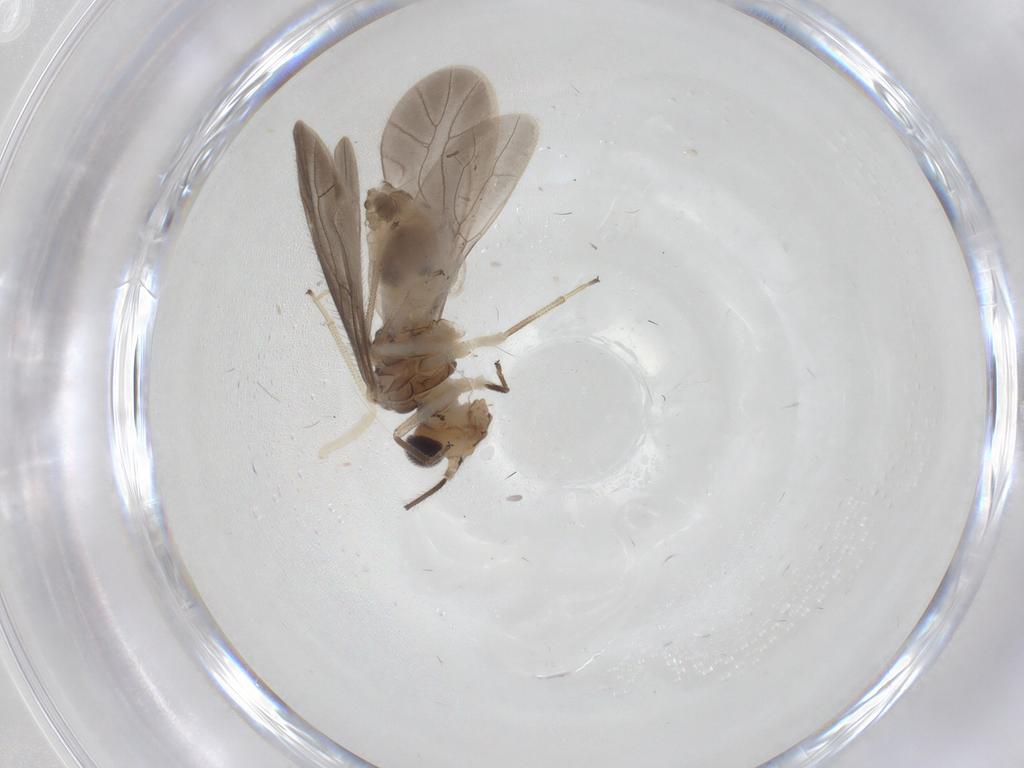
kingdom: Animalia
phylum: Arthropoda
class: Insecta
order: Psocodea
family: Caeciliusidae
